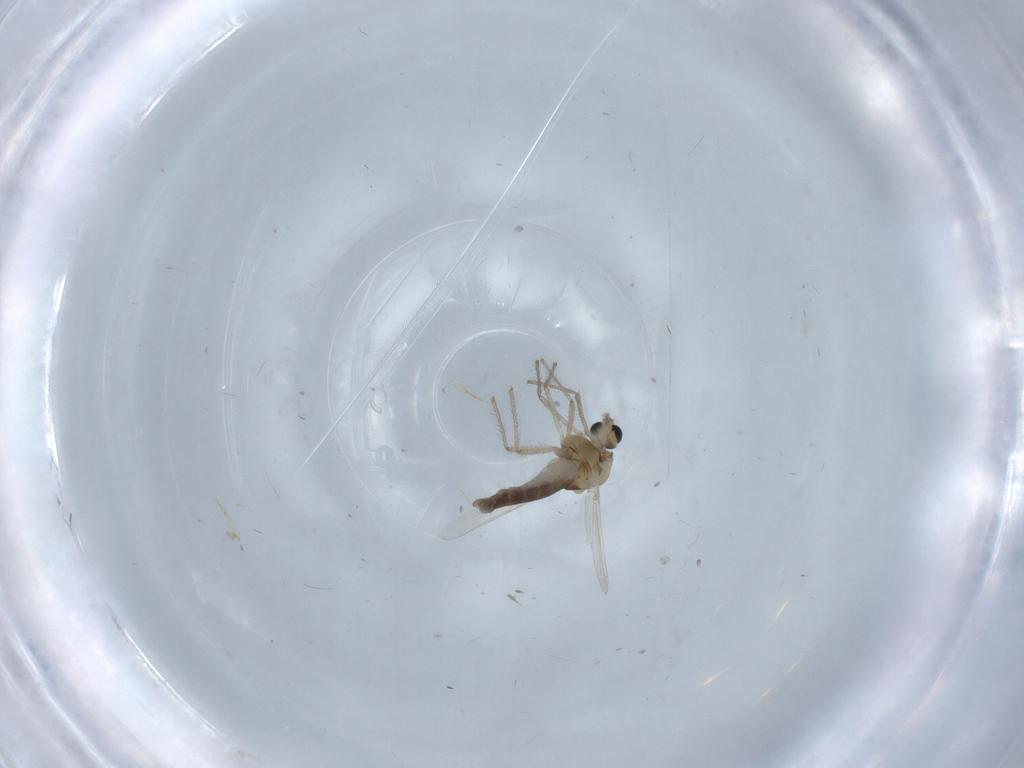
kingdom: Animalia
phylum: Arthropoda
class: Insecta
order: Diptera
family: Chironomidae
